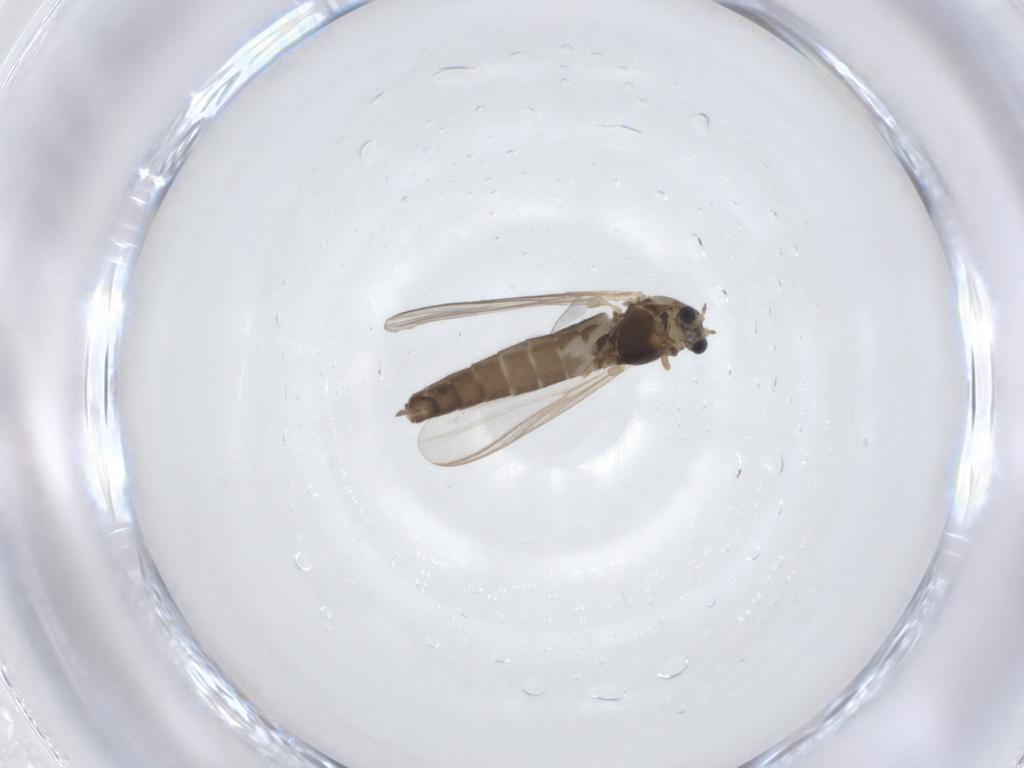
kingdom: Animalia
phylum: Arthropoda
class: Insecta
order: Diptera
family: Chironomidae
